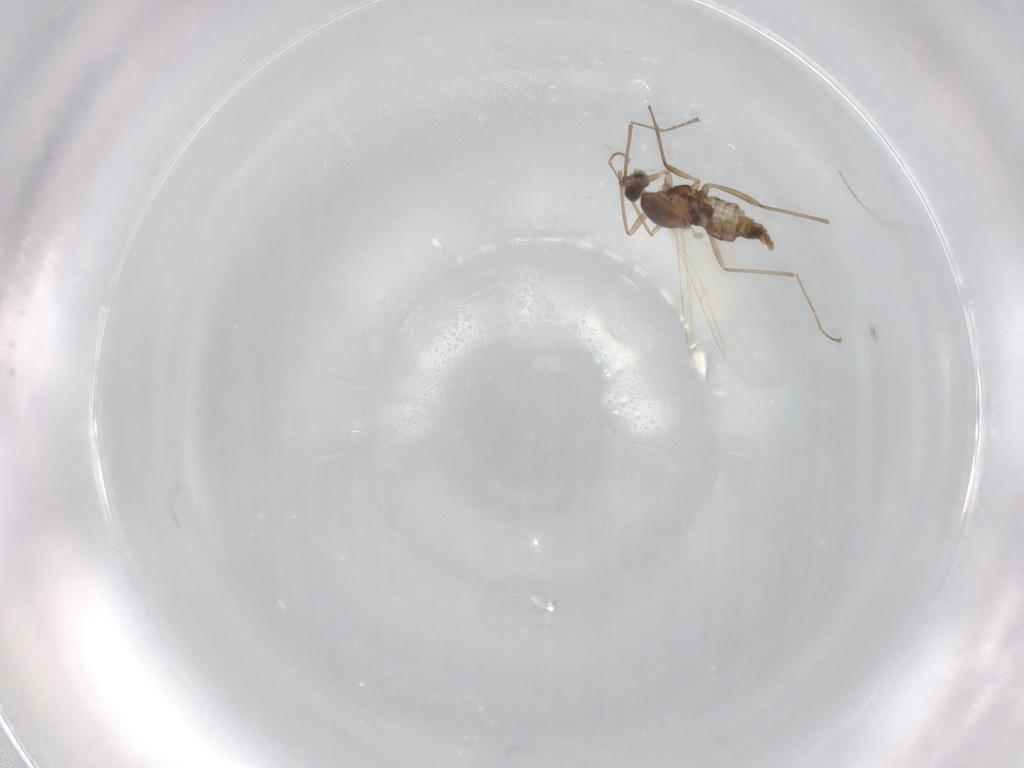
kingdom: Animalia
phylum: Arthropoda
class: Insecta
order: Diptera
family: Cecidomyiidae
